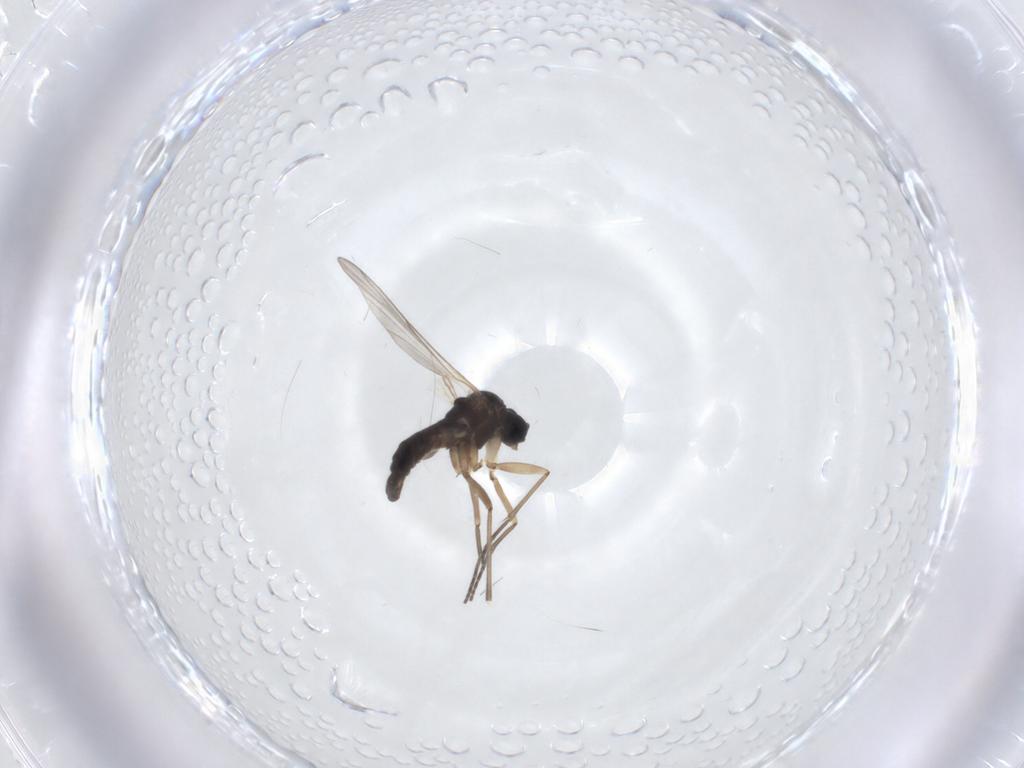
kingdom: Animalia
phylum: Arthropoda
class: Insecta
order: Diptera
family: Sciaridae
